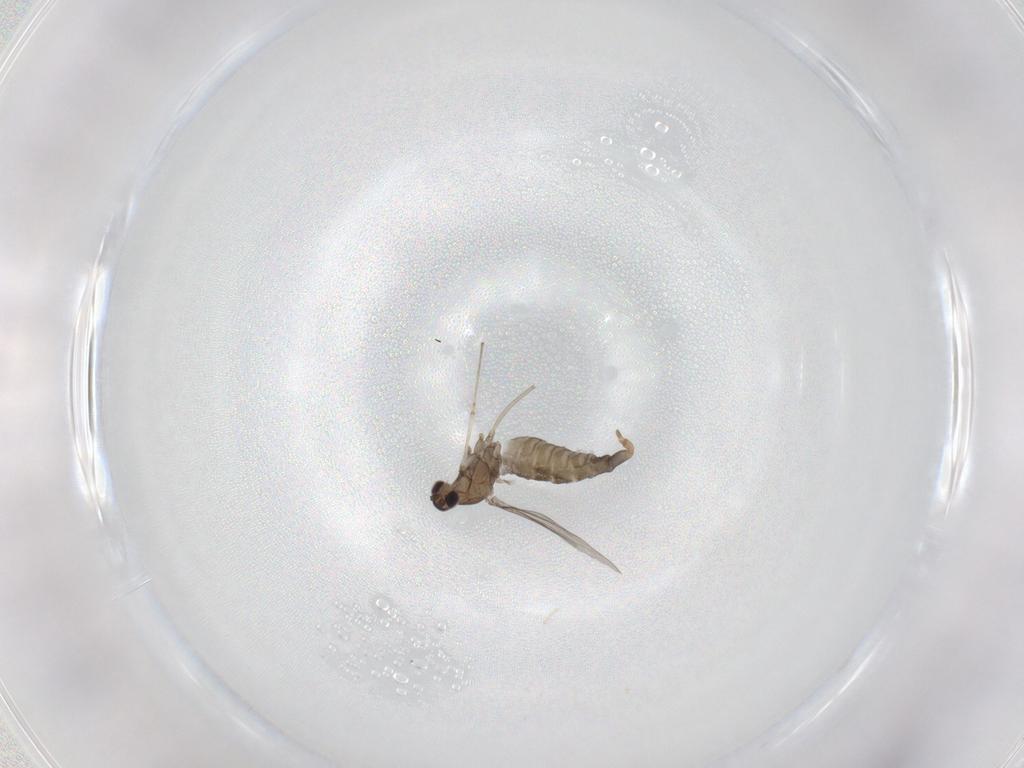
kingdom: Animalia
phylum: Arthropoda
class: Insecta
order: Diptera
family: Cecidomyiidae
